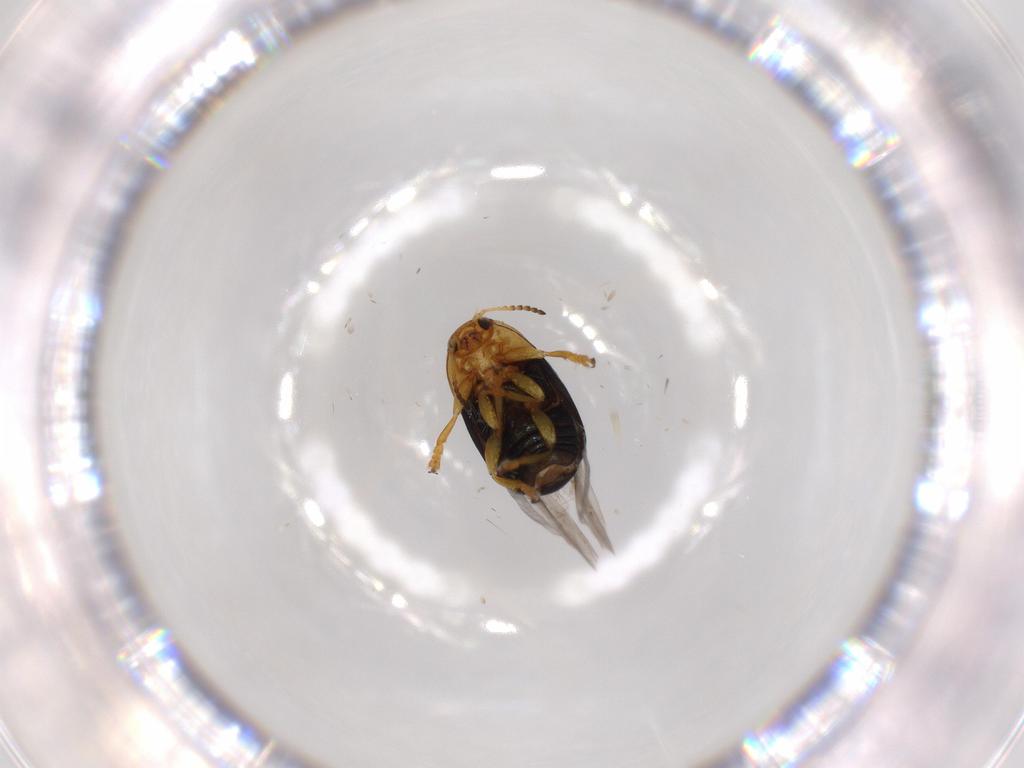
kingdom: Animalia
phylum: Arthropoda
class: Insecta
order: Coleoptera
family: Chrysomelidae
